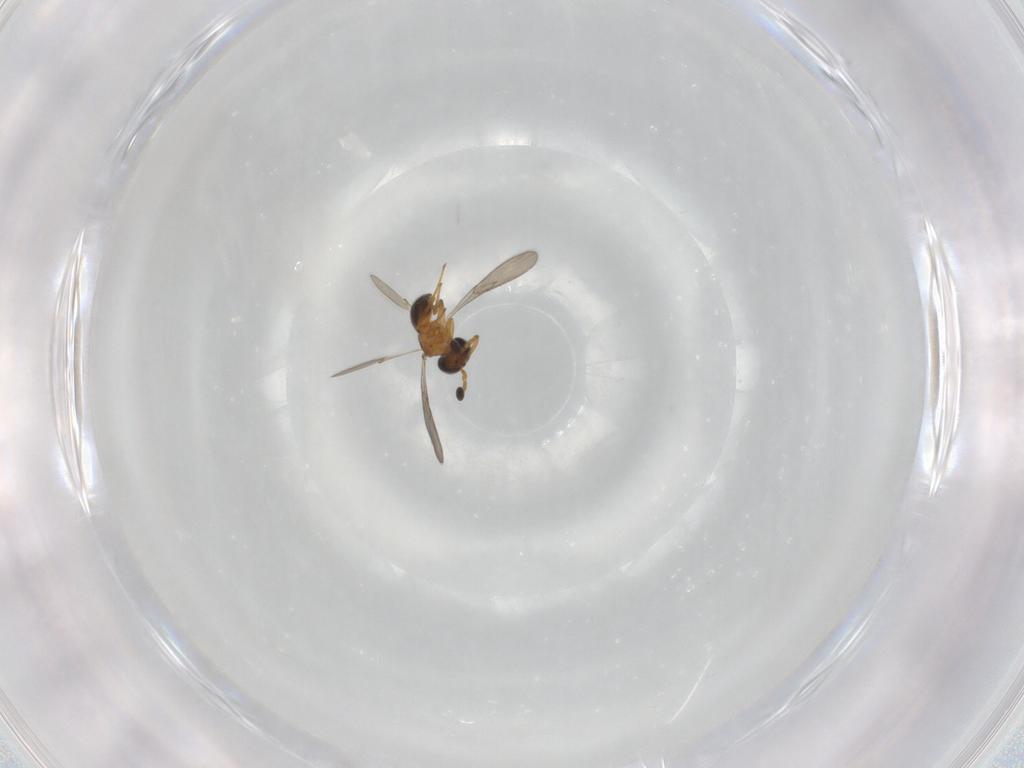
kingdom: Animalia
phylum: Arthropoda
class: Insecta
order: Hymenoptera
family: Scelionidae
